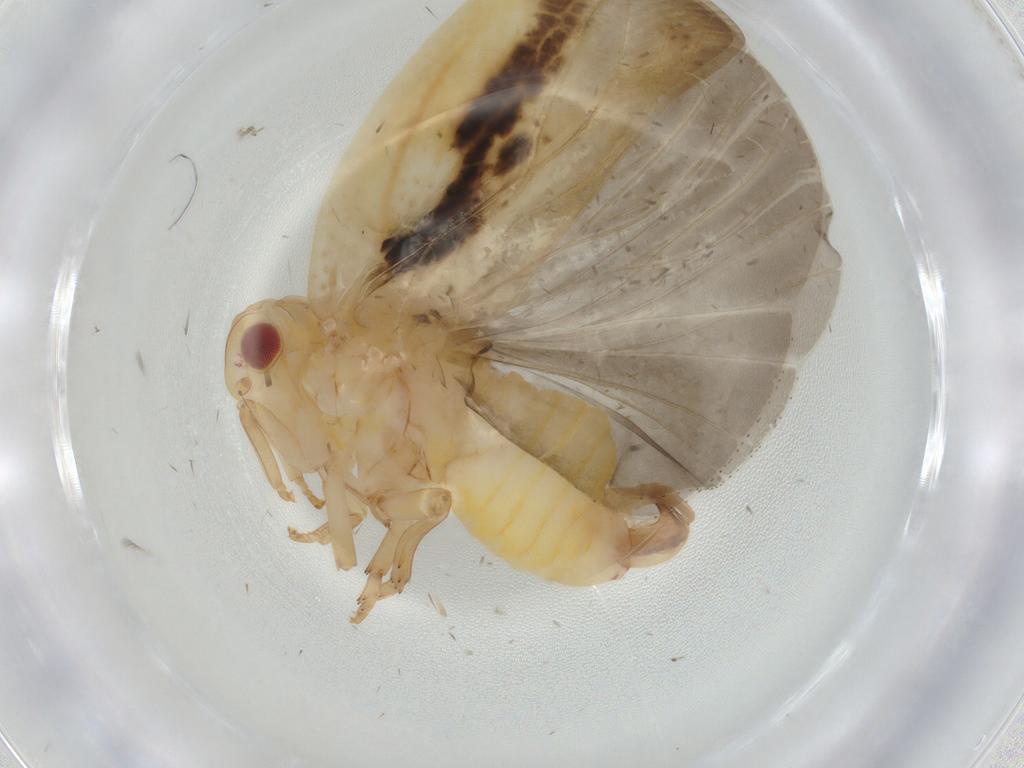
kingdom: Animalia
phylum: Arthropoda
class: Insecta
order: Hemiptera
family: Flatidae
